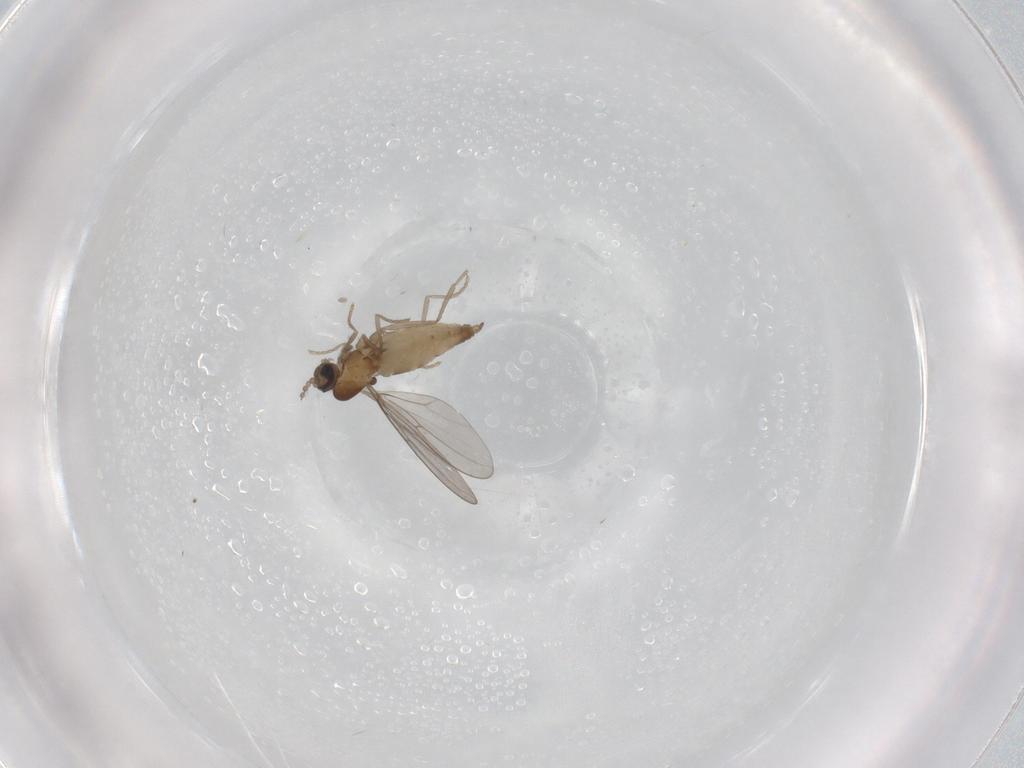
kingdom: Animalia
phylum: Arthropoda
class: Insecta
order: Diptera
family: Cecidomyiidae
